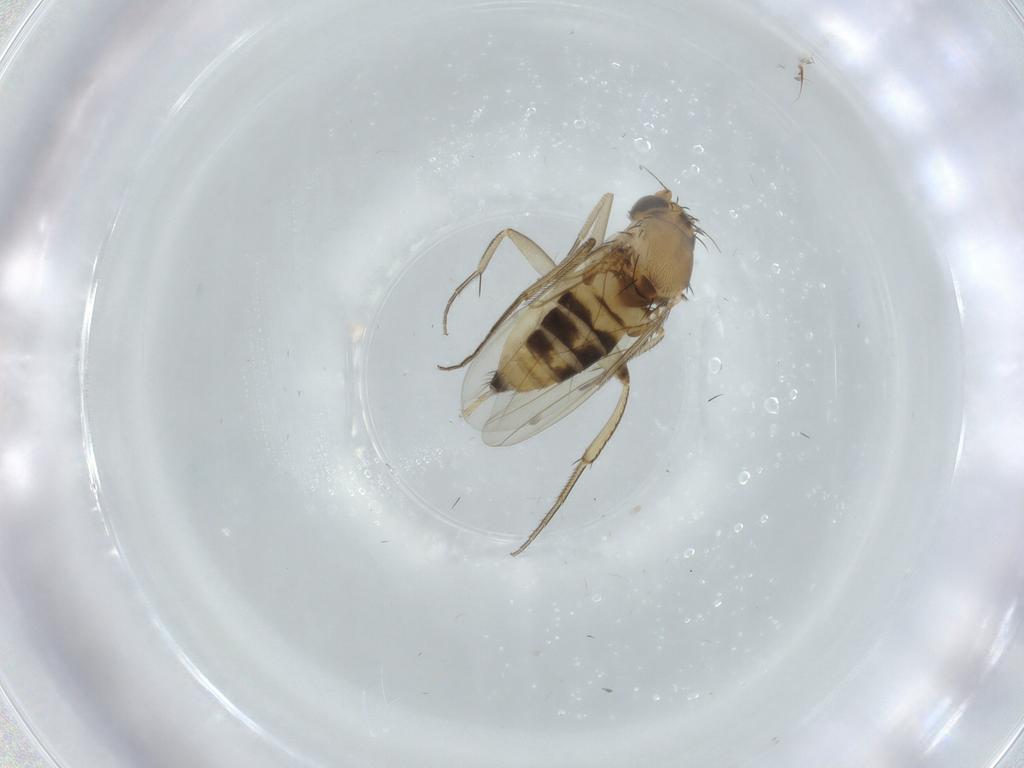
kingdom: Animalia
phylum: Arthropoda
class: Insecta
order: Diptera
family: Phoridae
